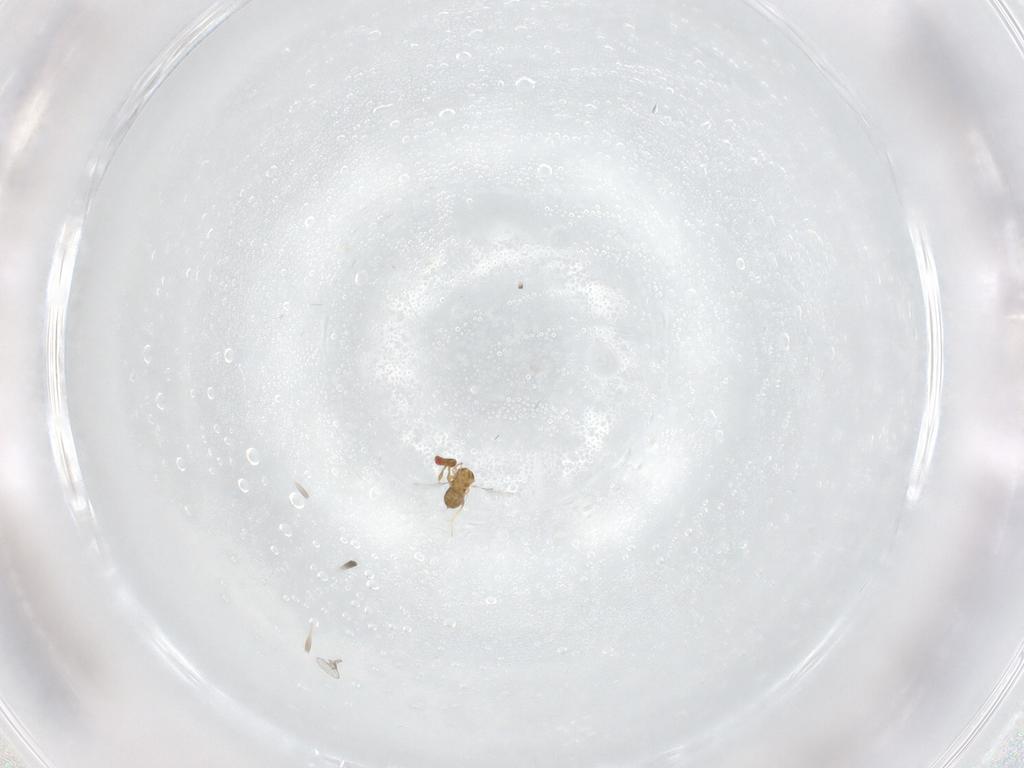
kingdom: Animalia
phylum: Arthropoda
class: Insecta
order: Hymenoptera
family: Trichogrammatidae
